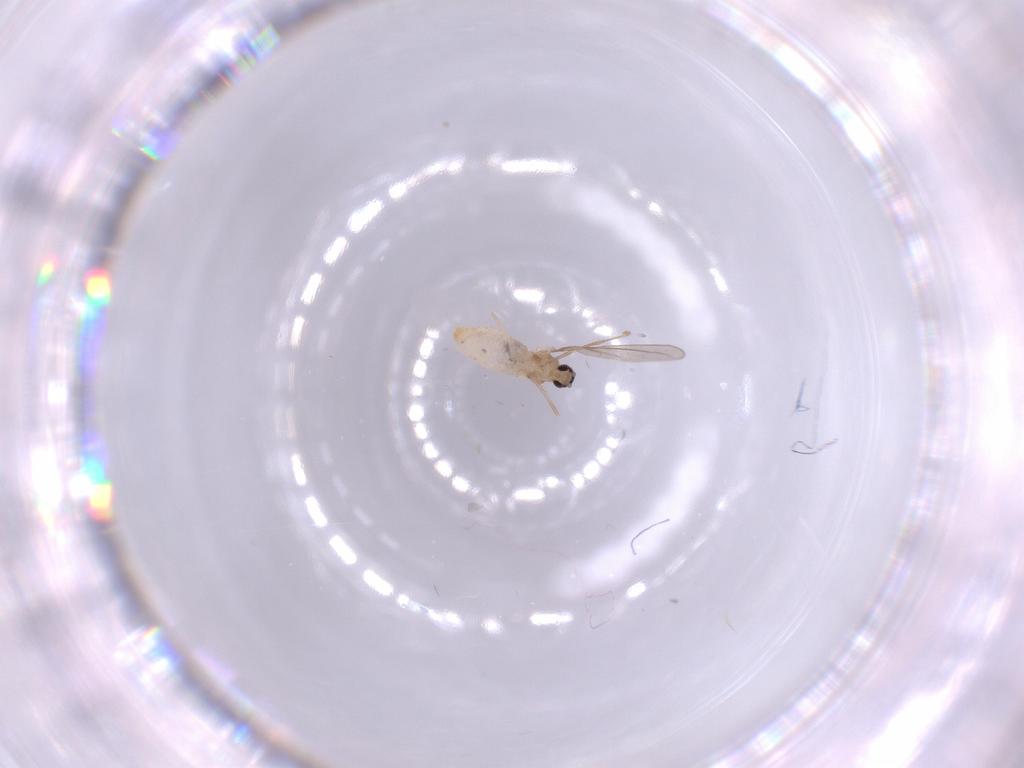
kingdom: Animalia
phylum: Arthropoda
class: Insecta
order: Diptera
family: Cecidomyiidae
